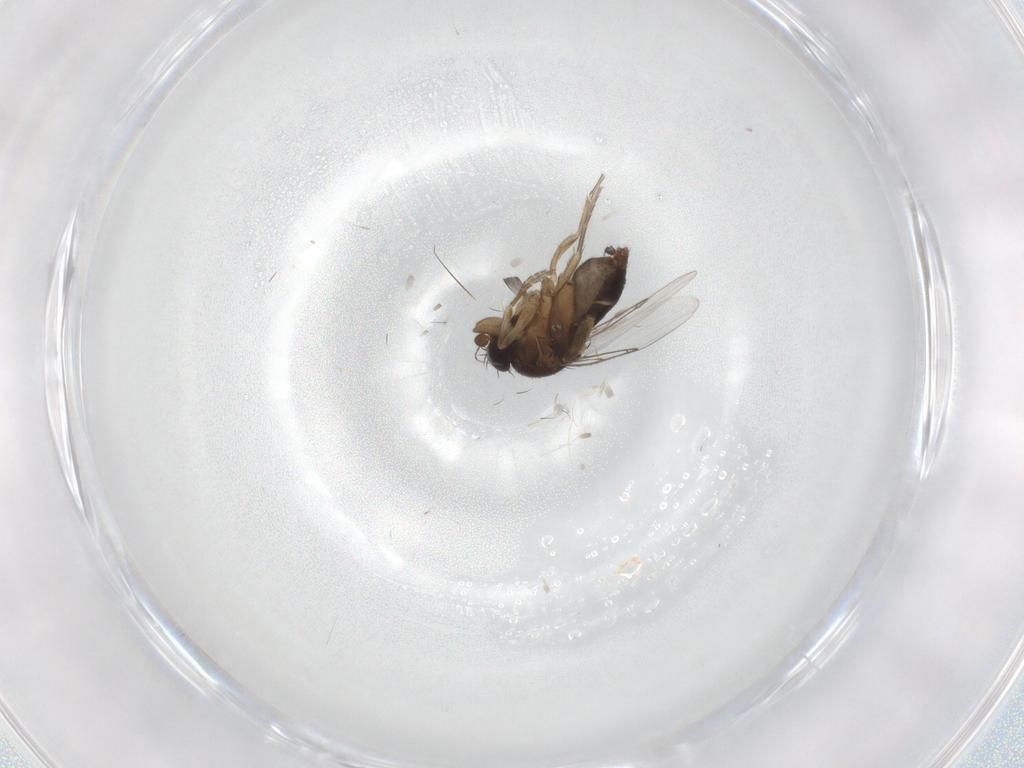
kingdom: Animalia
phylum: Arthropoda
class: Insecta
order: Diptera
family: Phoridae
